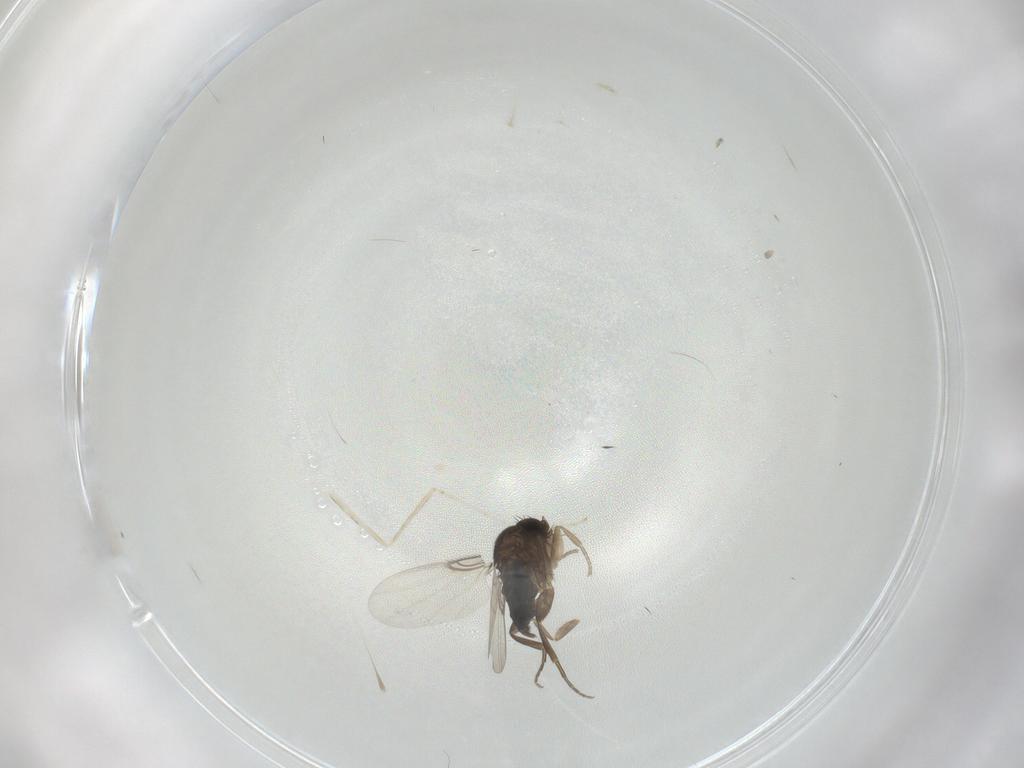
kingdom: Animalia
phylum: Arthropoda
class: Insecta
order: Diptera
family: Phoridae
